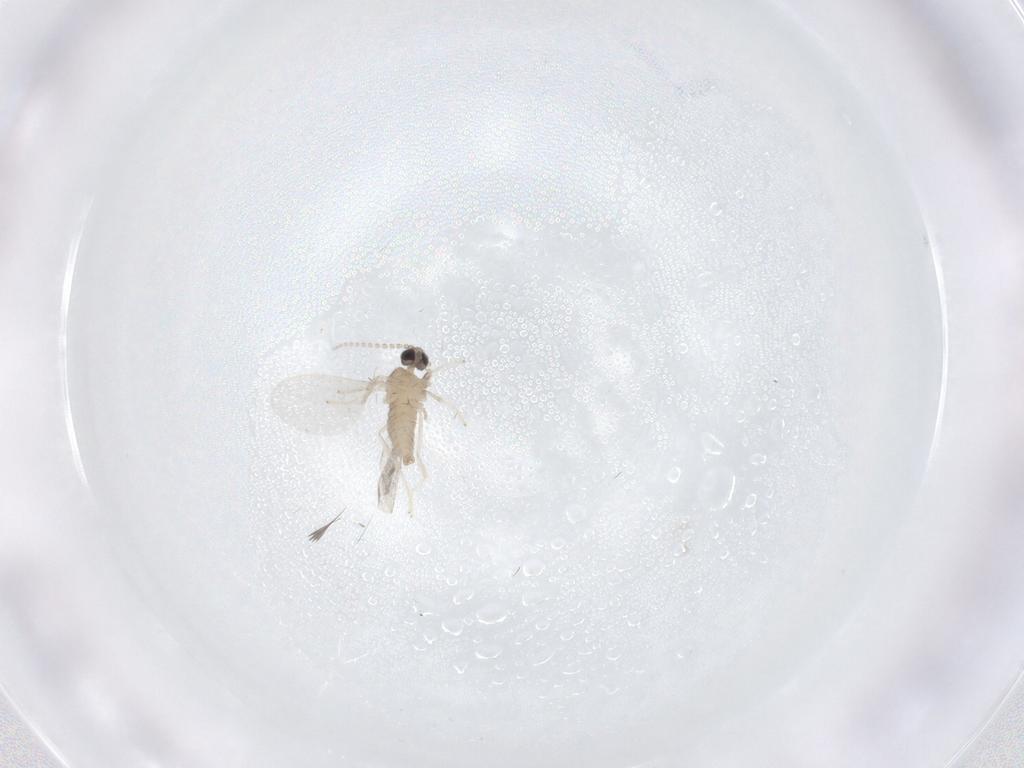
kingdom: Animalia
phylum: Arthropoda
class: Insecta
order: Diptera
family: Cecidomyiidae
